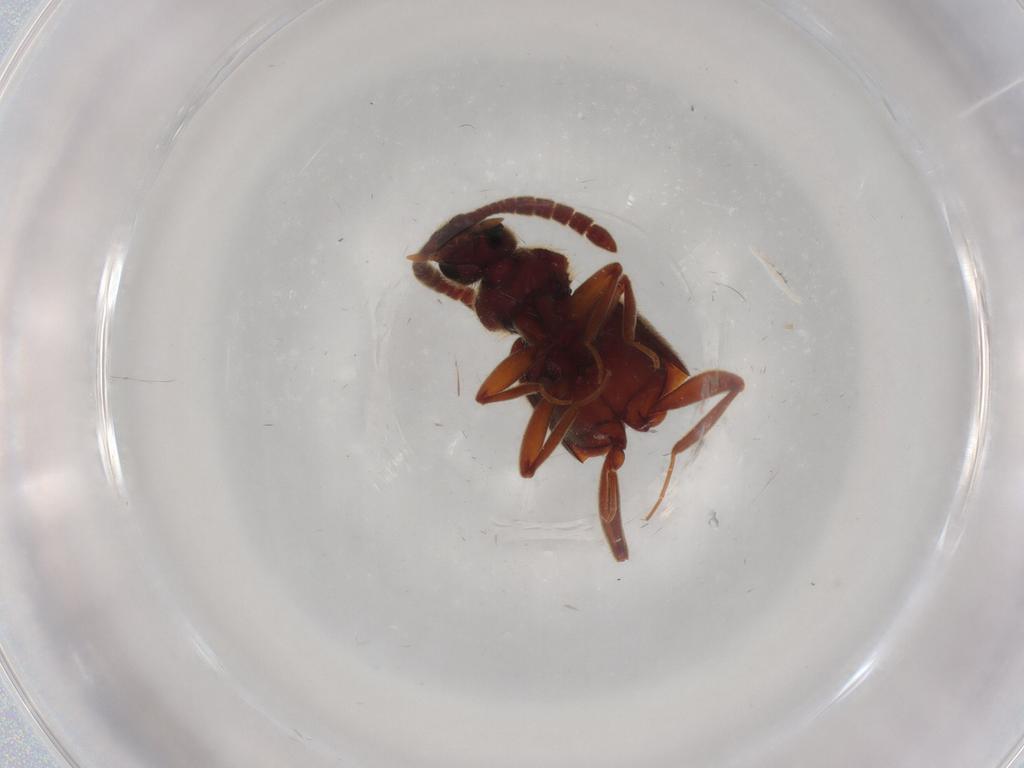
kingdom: Animalia
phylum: Arthropoda
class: Insecta
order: Coleoptera
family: Staphylinidae
